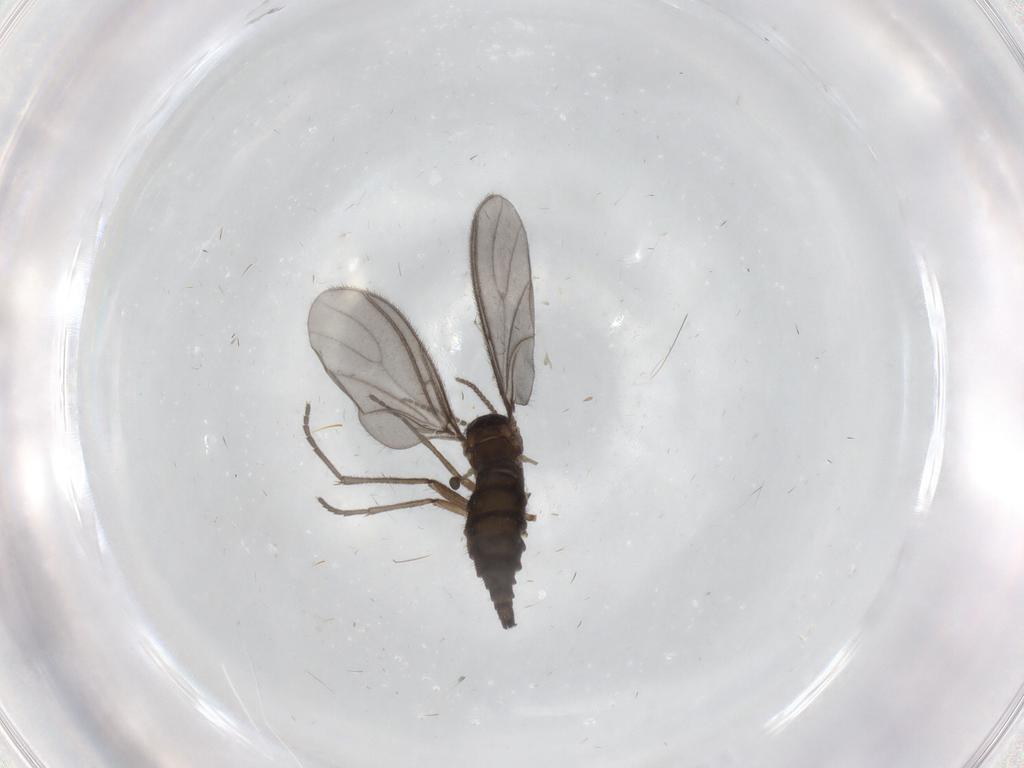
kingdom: Animalia
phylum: Arthropoda
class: Insecta
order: Diptera
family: Sciaridae
